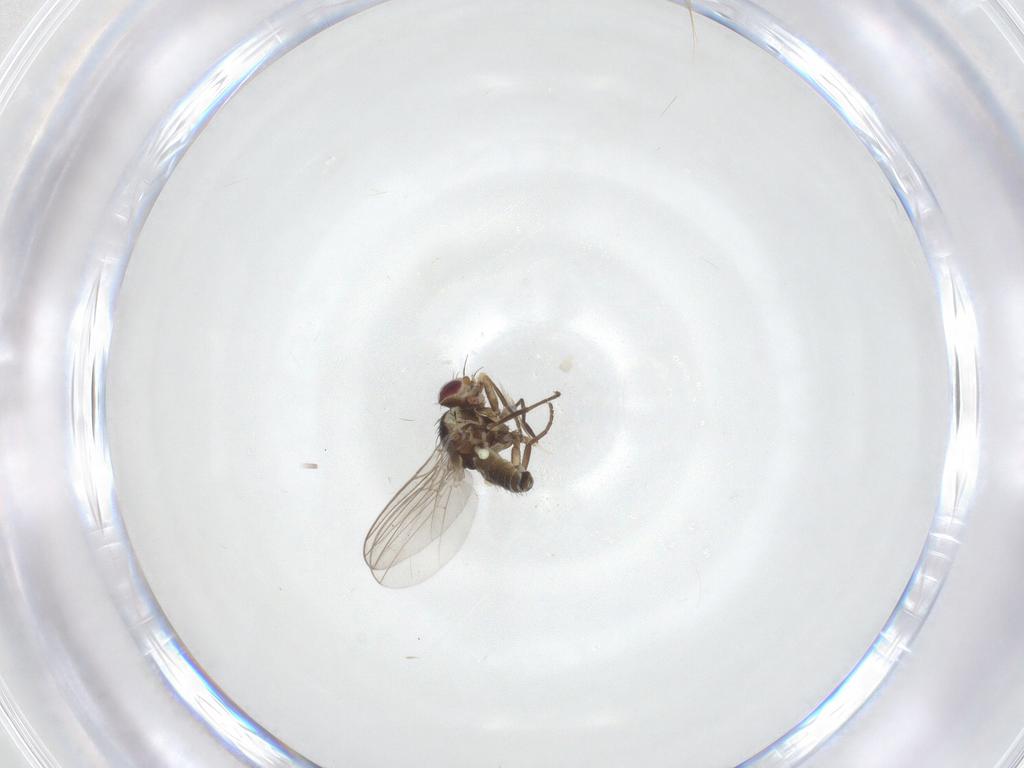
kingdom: Animalia
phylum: Arthropoda
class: Insecta
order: Diptera
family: Agromyzidae
